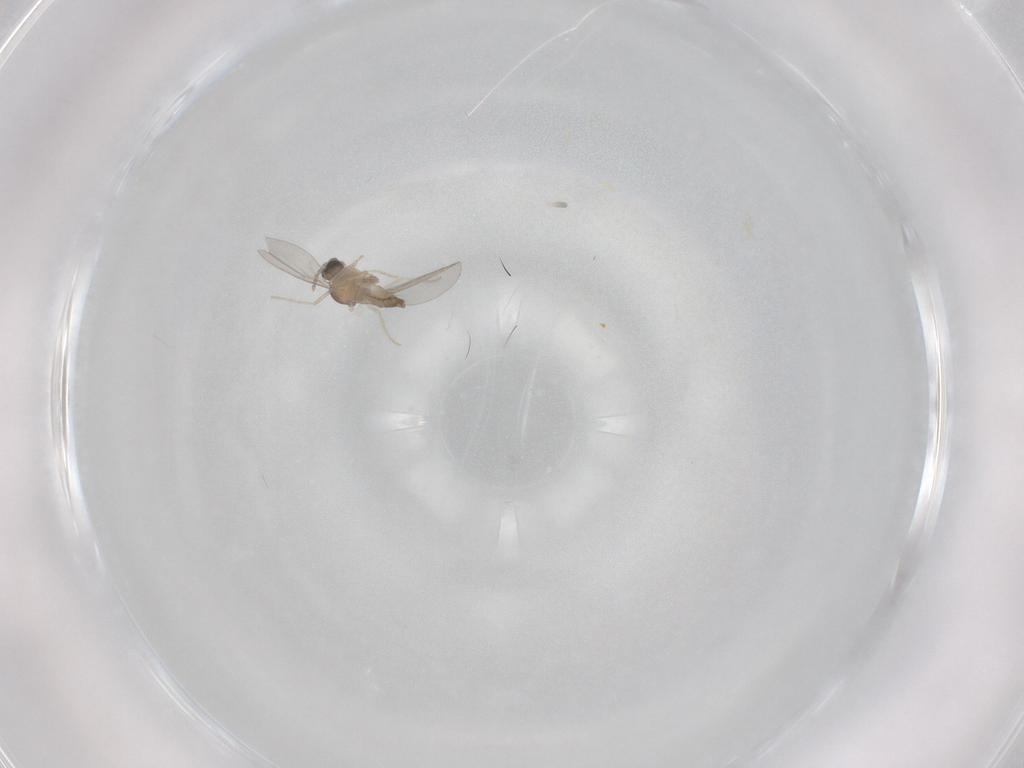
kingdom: Animalia
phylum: Arthropoda
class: Insecta
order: Diptera
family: Cecidomyiidae
